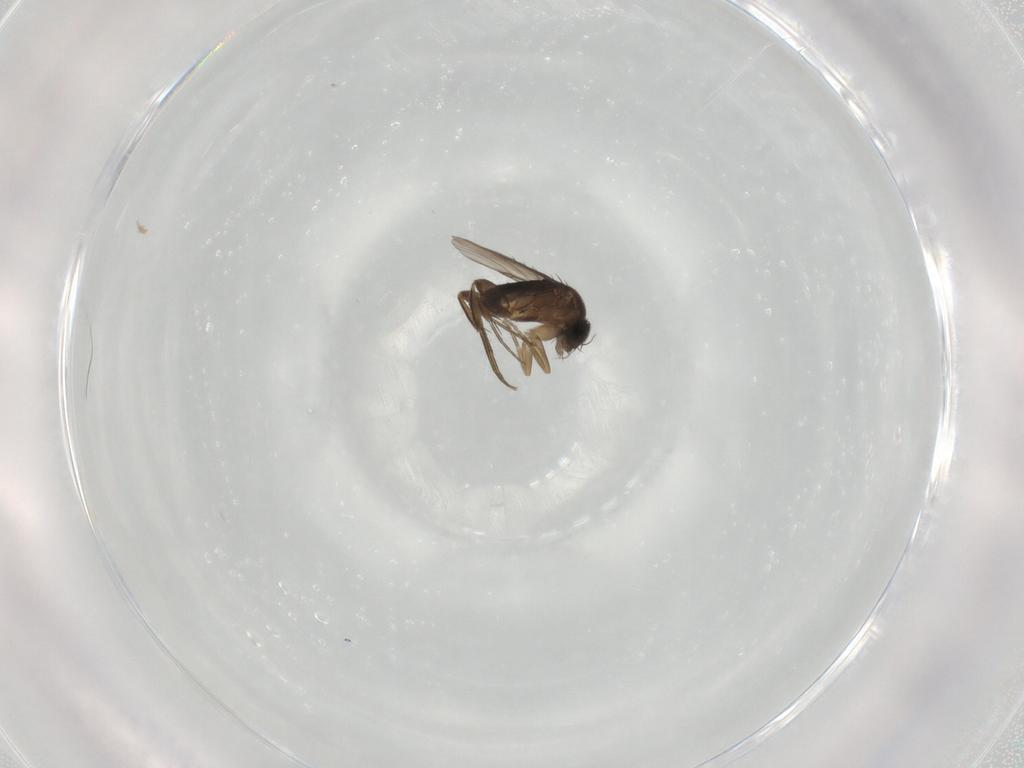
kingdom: Animalia
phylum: Arthropoda
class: Insecta
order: Diptera
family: Phoridae
